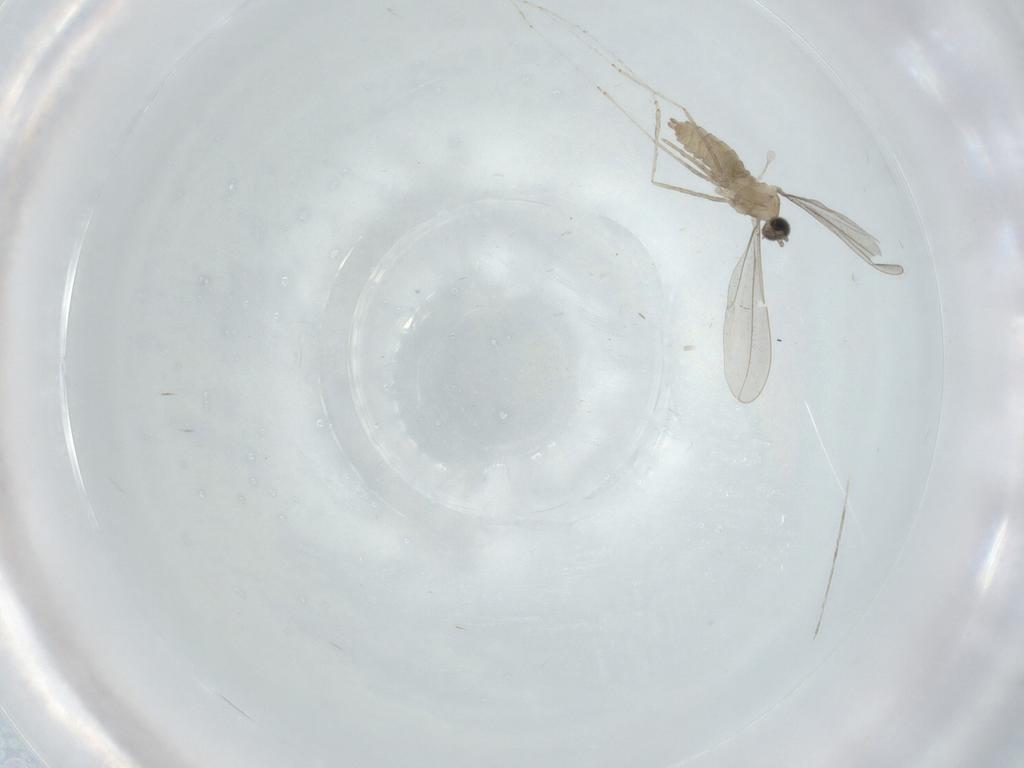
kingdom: Animalia
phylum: Arthropoda
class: Insecta
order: Diptera
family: Cecidomyiidae
